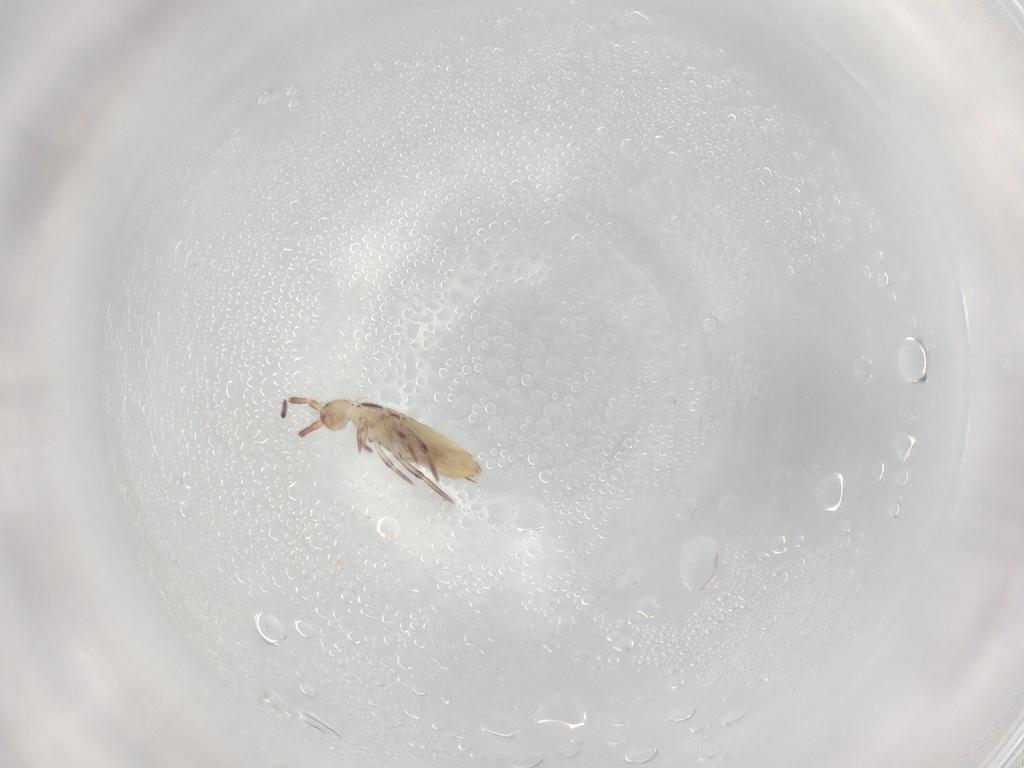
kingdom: Animalia
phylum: Arthropoda
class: Collembola
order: Entomobryomorpha
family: Entomobryidae
